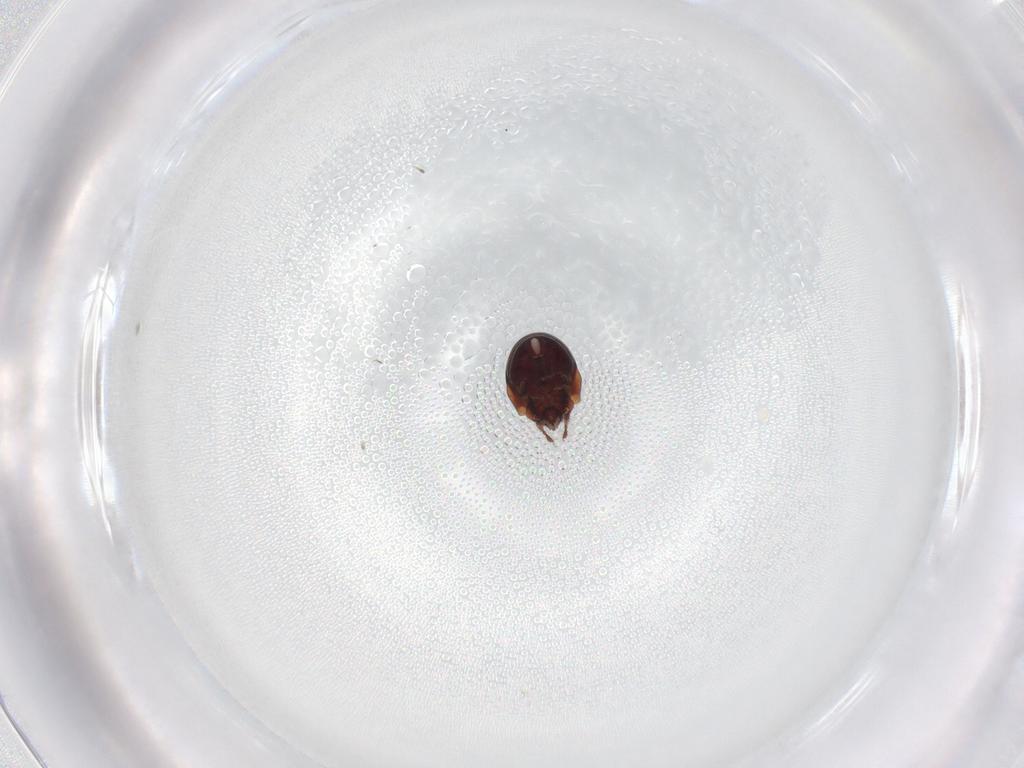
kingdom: Animalia
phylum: Arthropoda
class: Arachnida
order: Sarcoptiformes
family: Humerobatidae
